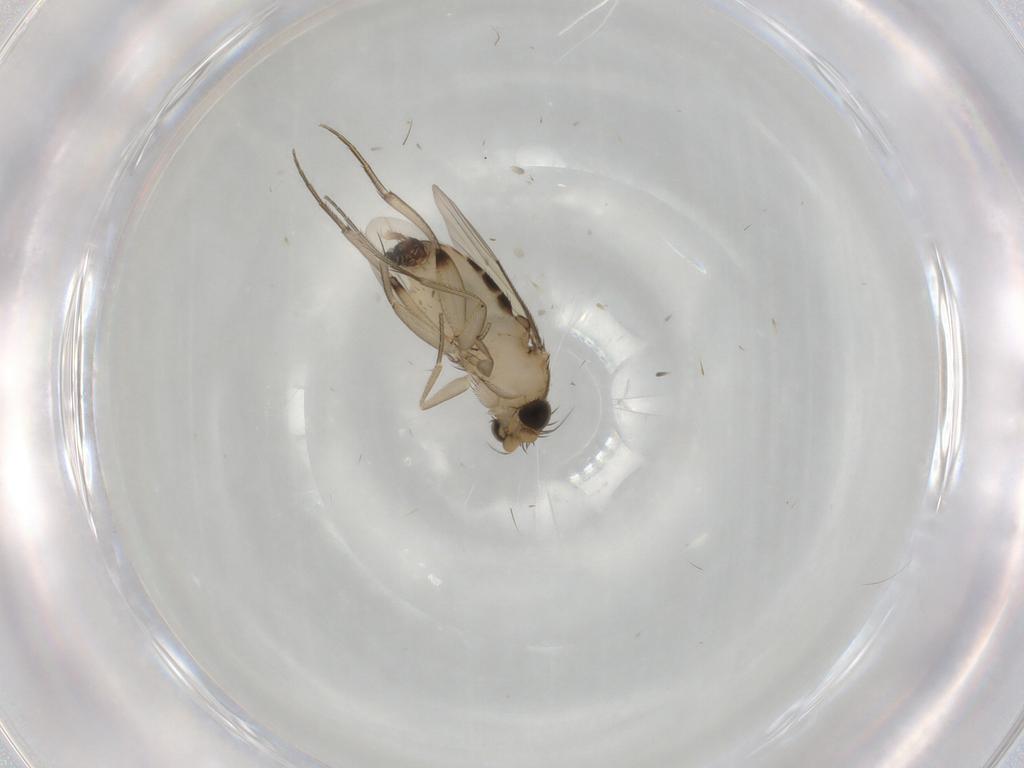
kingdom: Animalia
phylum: Arthropoda
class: Insecta
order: Diptera
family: Phoridae
